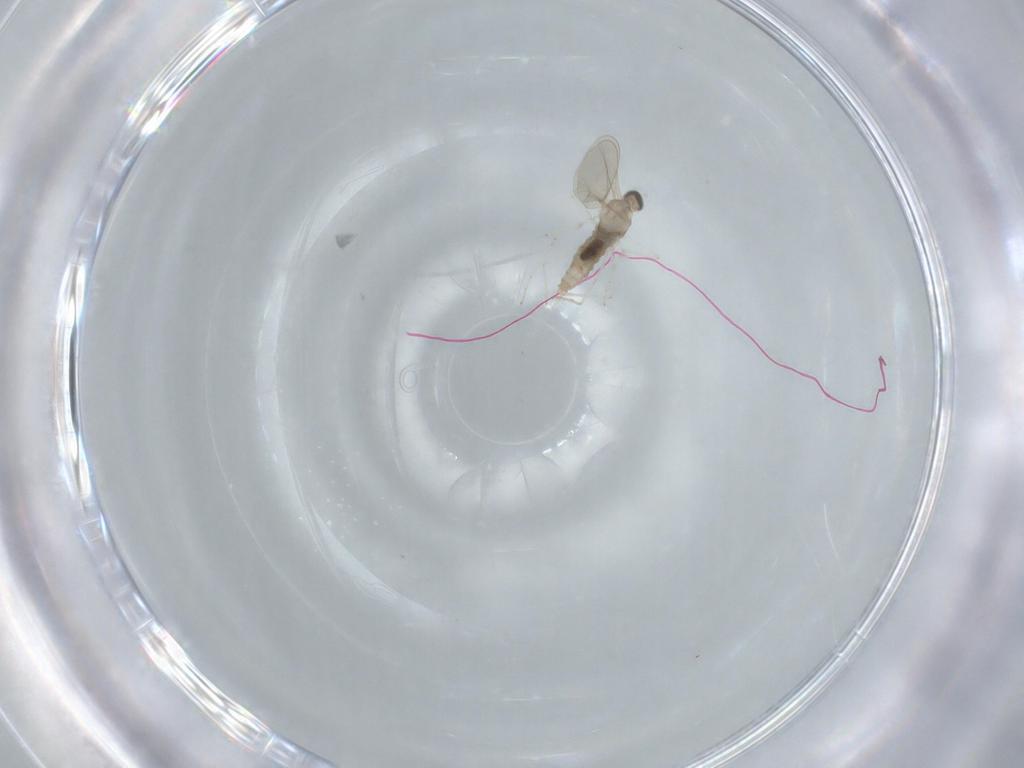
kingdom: Animalia
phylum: Arthropoda
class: Insecta
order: Diptera
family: Cecidomyiidae
